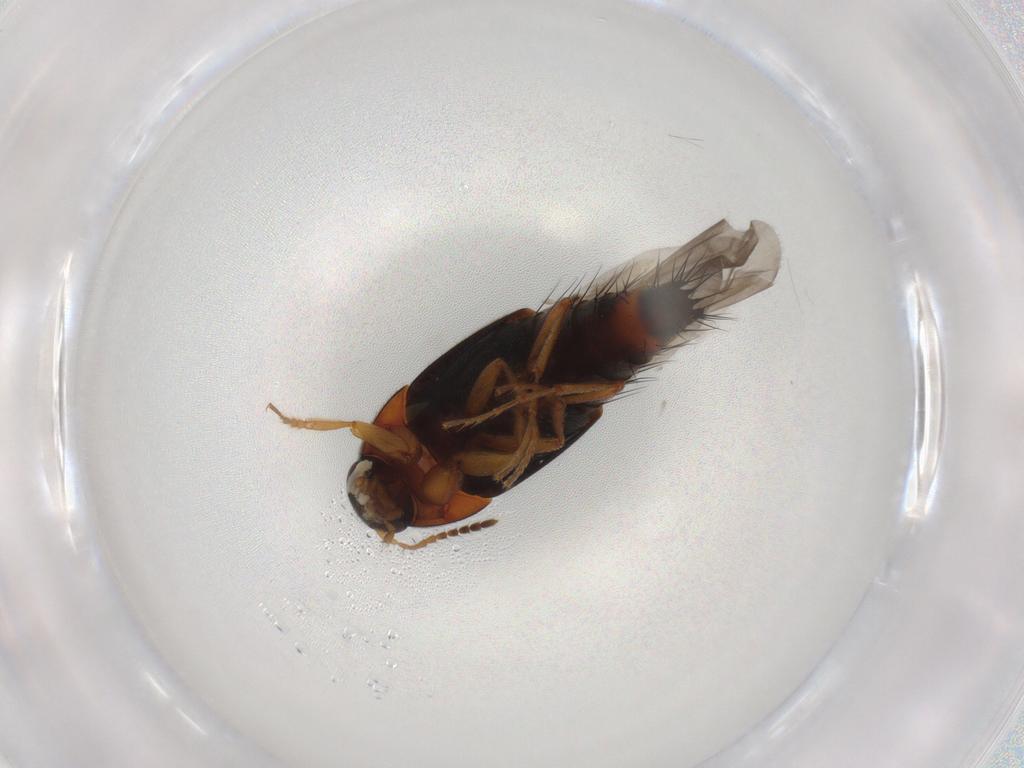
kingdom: Animalia
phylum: Arthropoda
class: Insecta
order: Coleoptera
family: Staphylinidae
